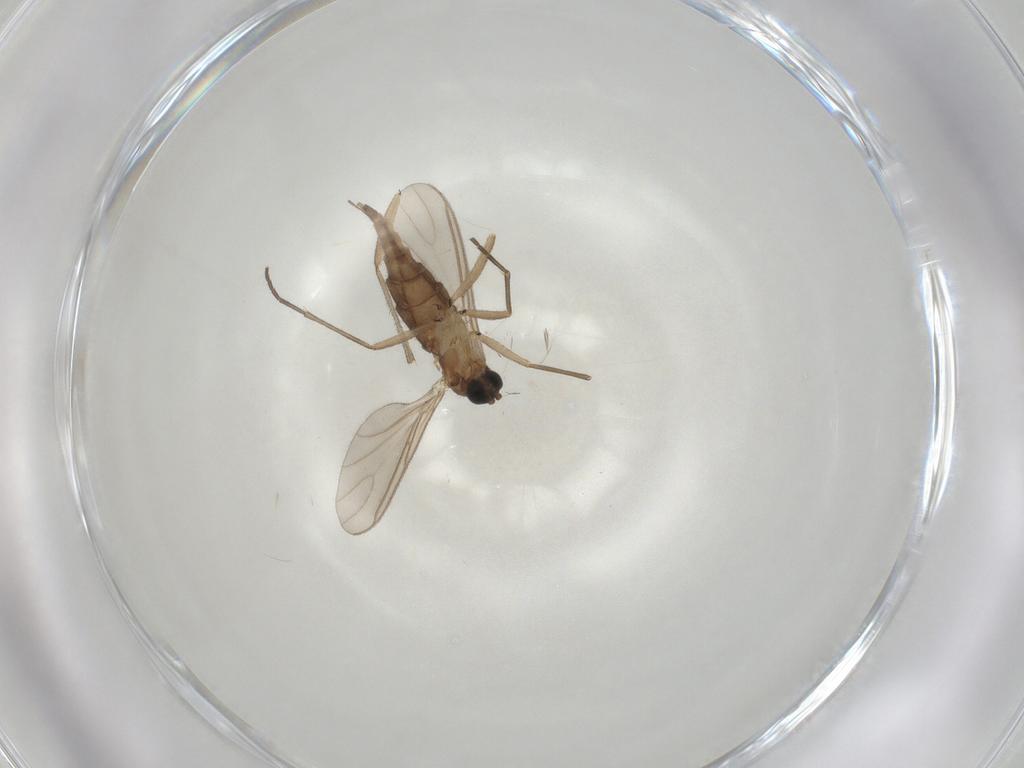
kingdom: Animalia
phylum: Arthropoda
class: Insecta
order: Diptera
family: Sciaridae
